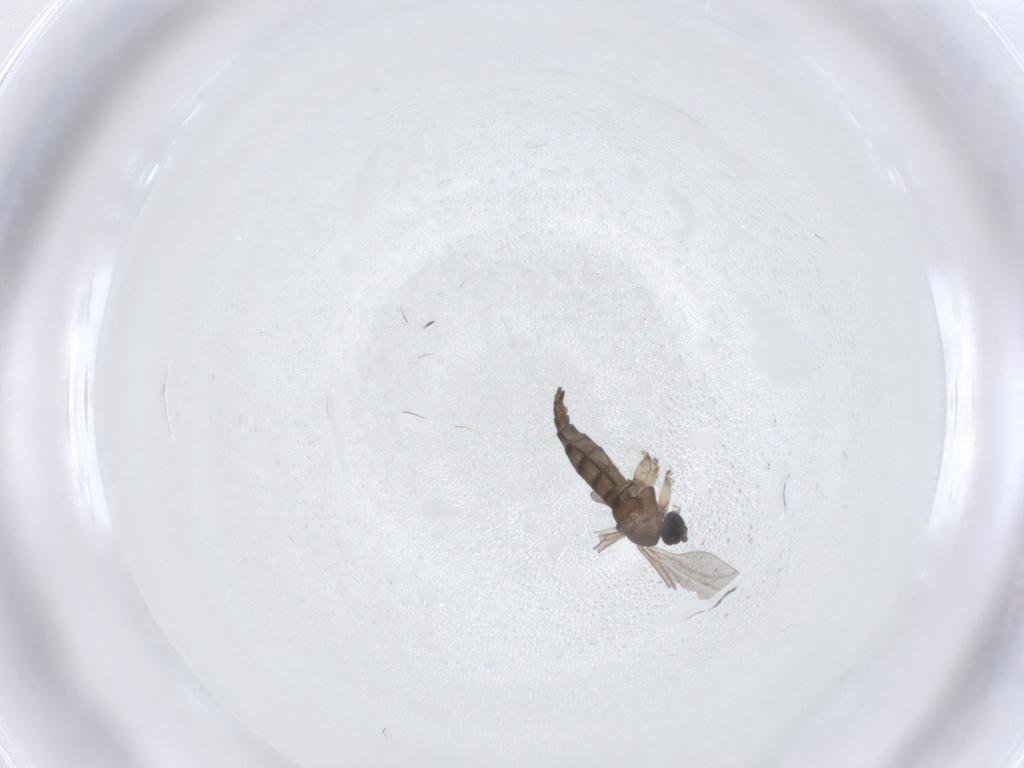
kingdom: Animalia
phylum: Arthropoda
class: Insecta
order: Diptera
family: Sciaridae
